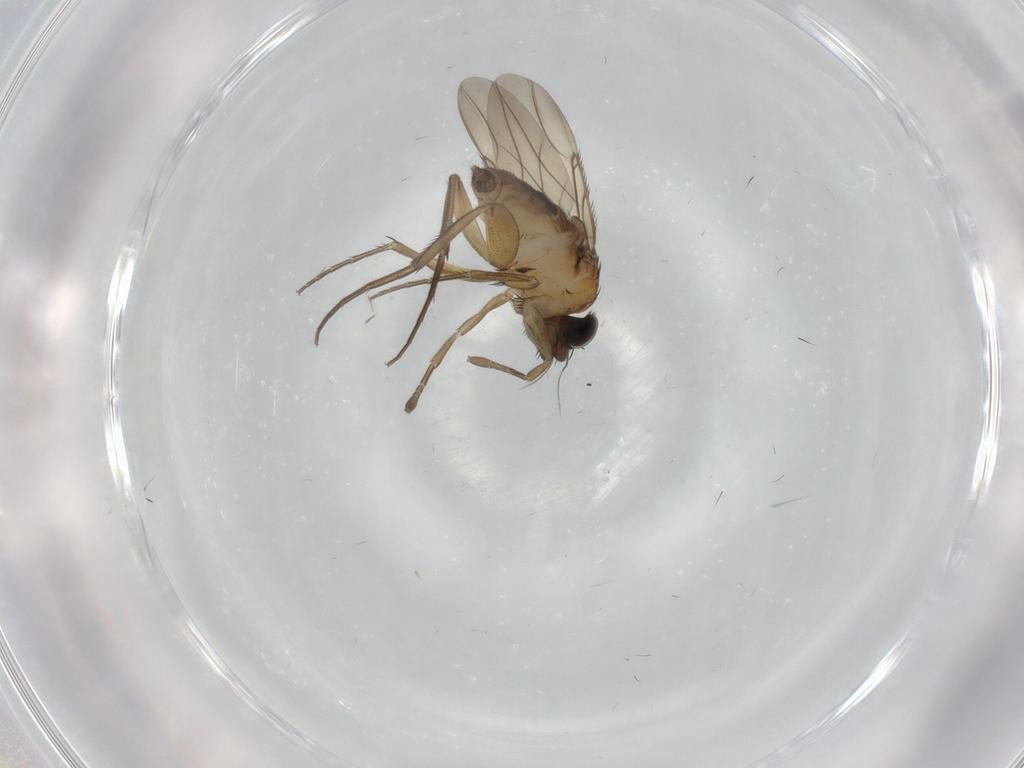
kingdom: Animalia
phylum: Arthropoda
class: Insecta
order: Diptera
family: Phoridae
